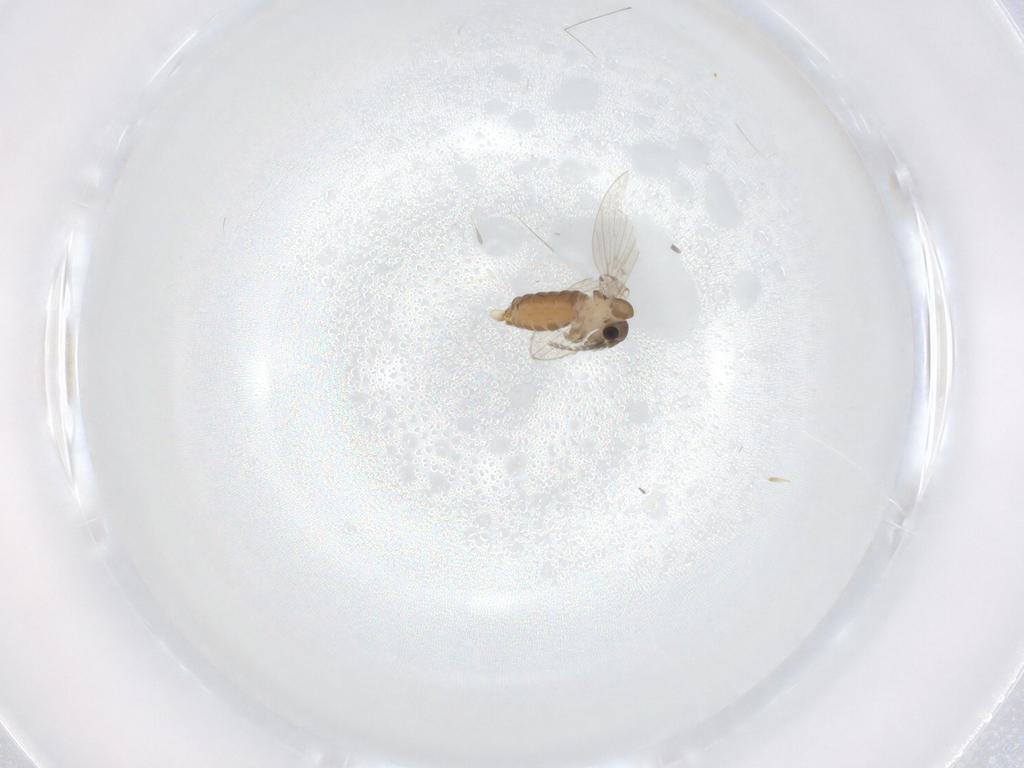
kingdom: Animalia
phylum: Arthropoda
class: Insecta
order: Diptera
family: Psychodidae
